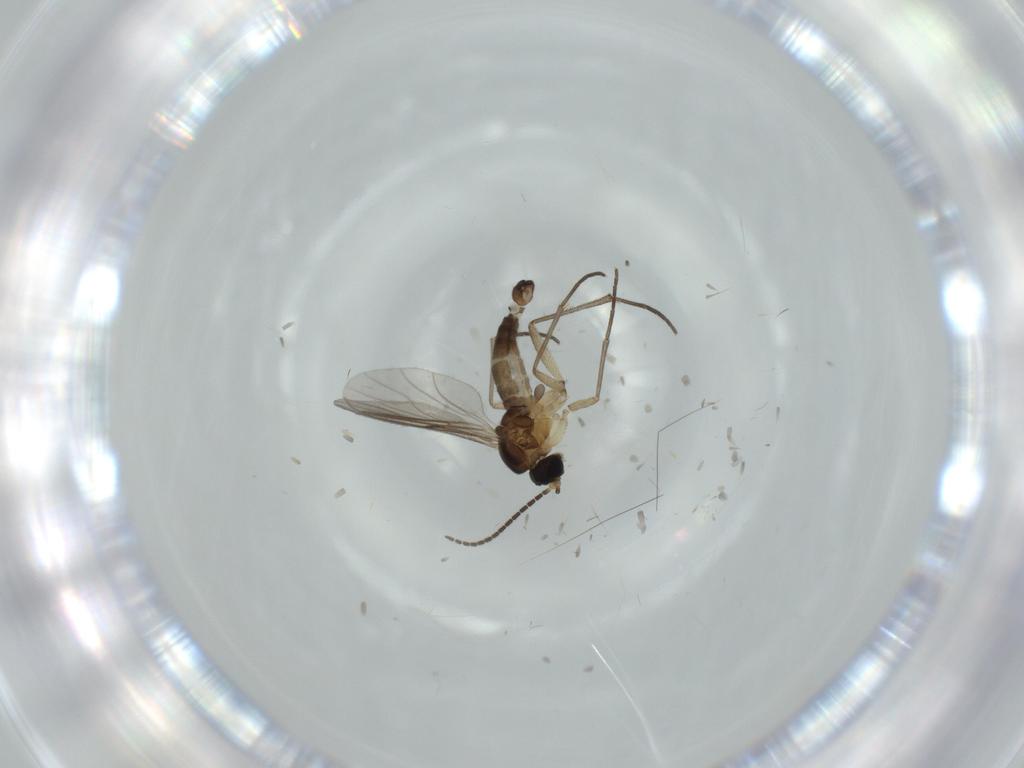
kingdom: Animalia
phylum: Arthropoda
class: Insecta
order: Diptera
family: Sciaridae
